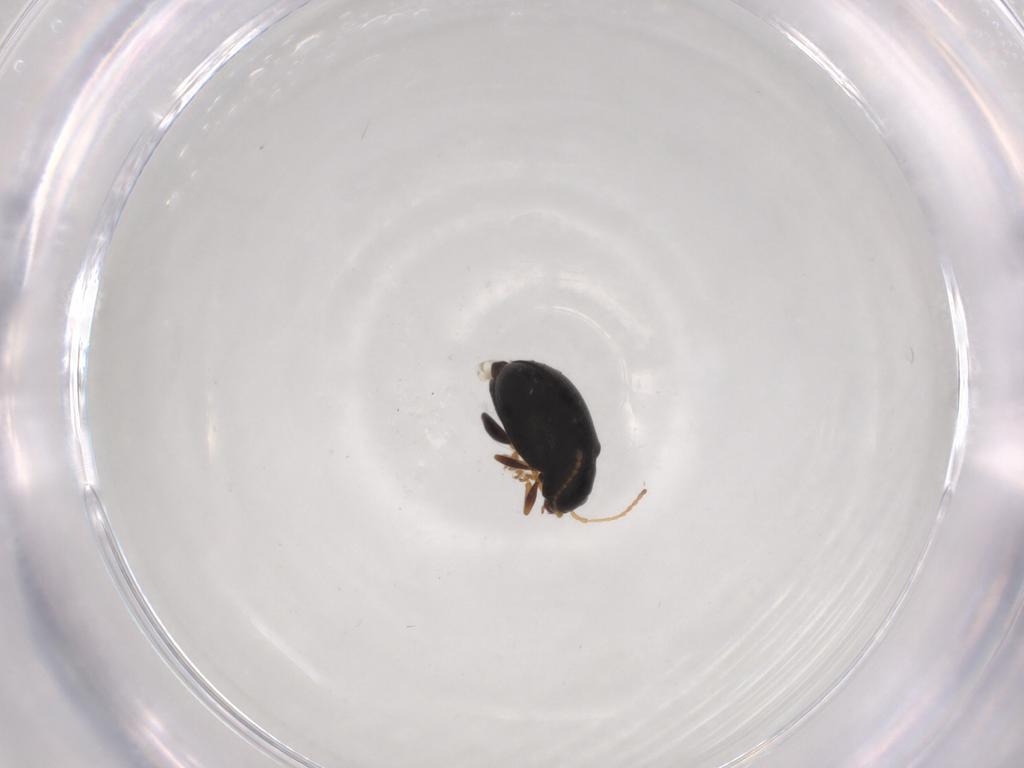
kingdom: Animalia
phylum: Arthropoda
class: Insecta
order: Coleoptera
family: Chrysomelidae
